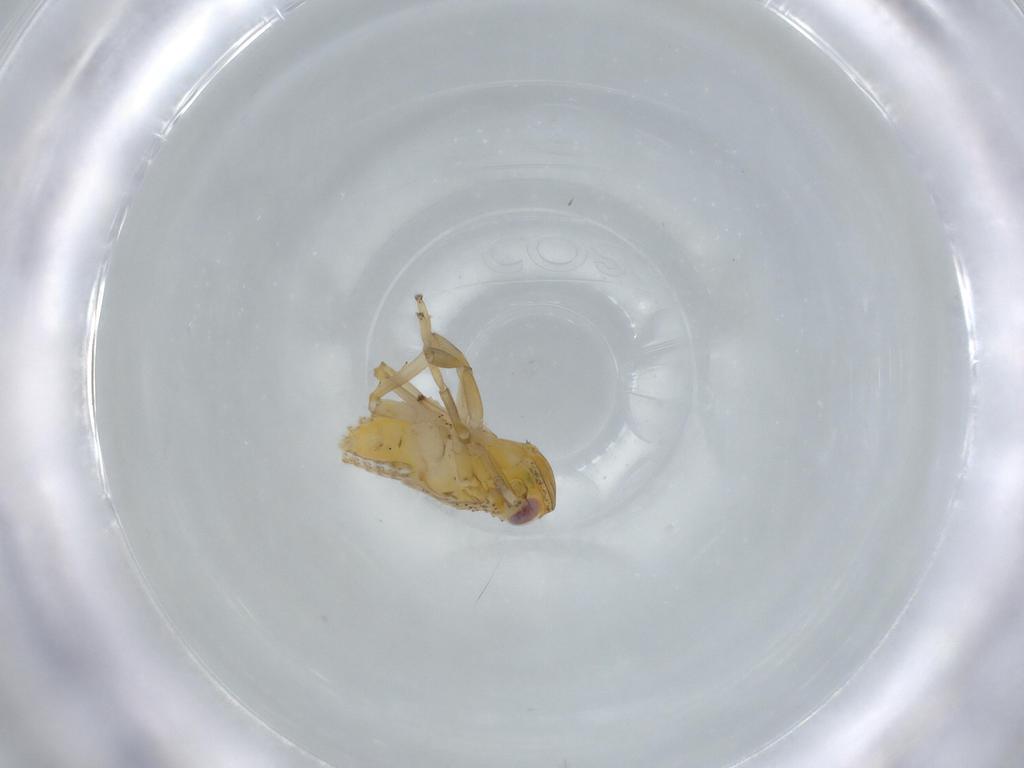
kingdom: Animalia
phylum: Arthropoda
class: Insecta
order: Hemiptera
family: Issidae
